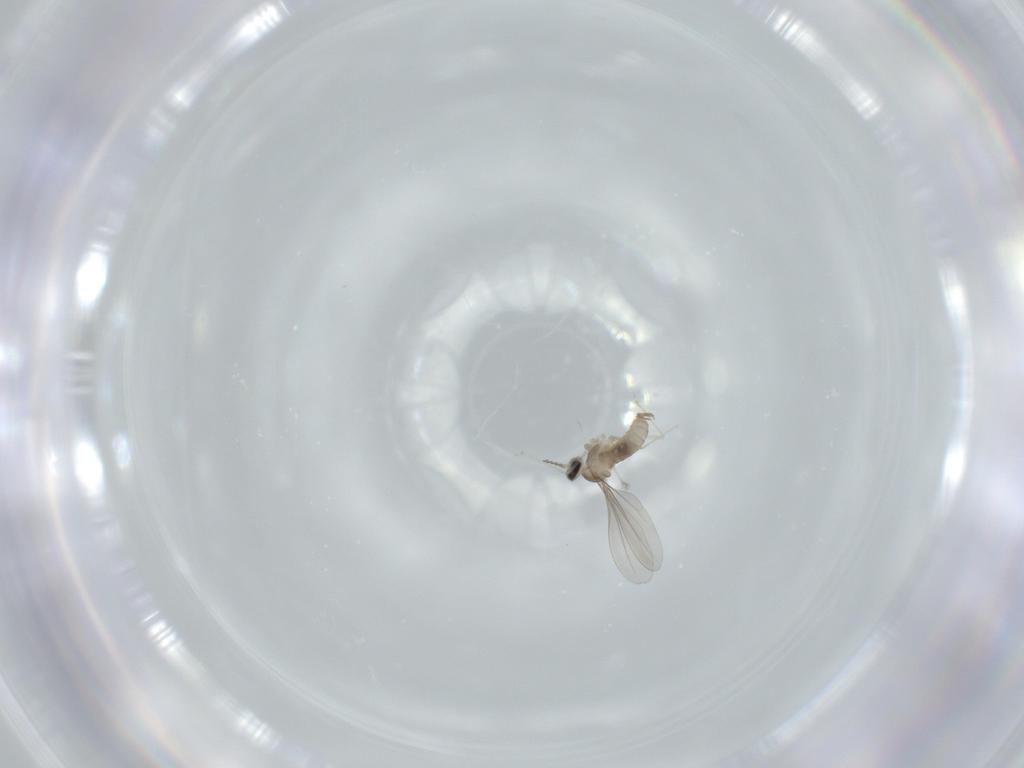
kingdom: Animalia
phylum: Arthropoda
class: Insecta
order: Diptera
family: Cecidomyiidae
